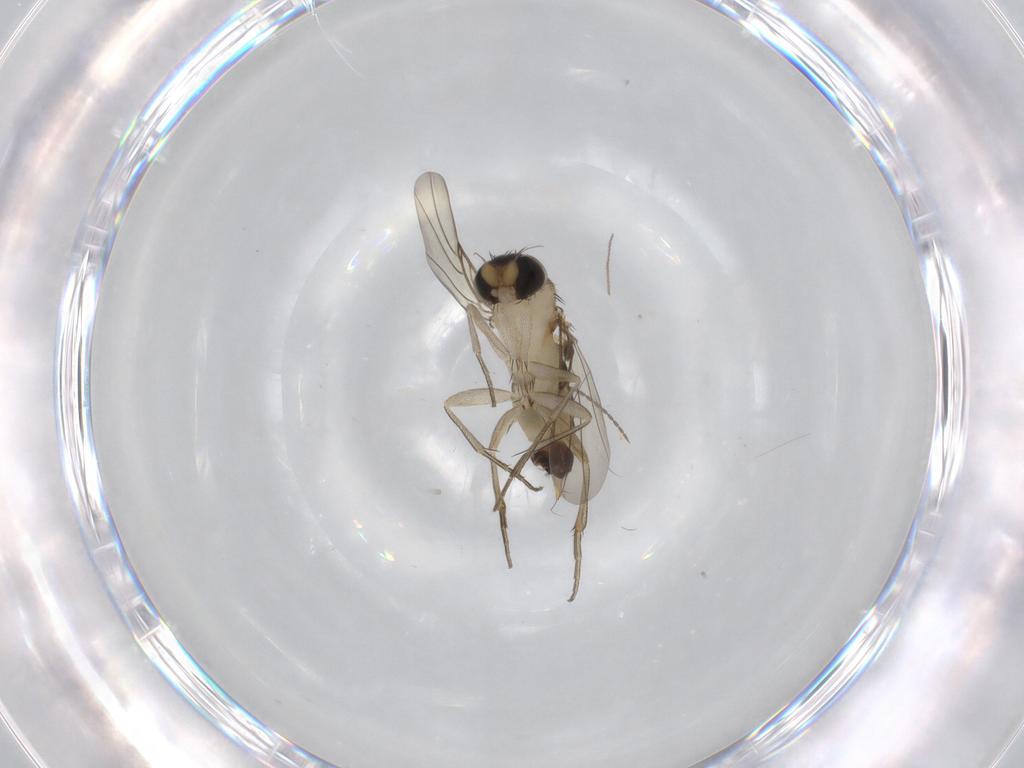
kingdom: Animalia
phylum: Arthropoda
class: Insecta
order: Diptera
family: Phoridae
